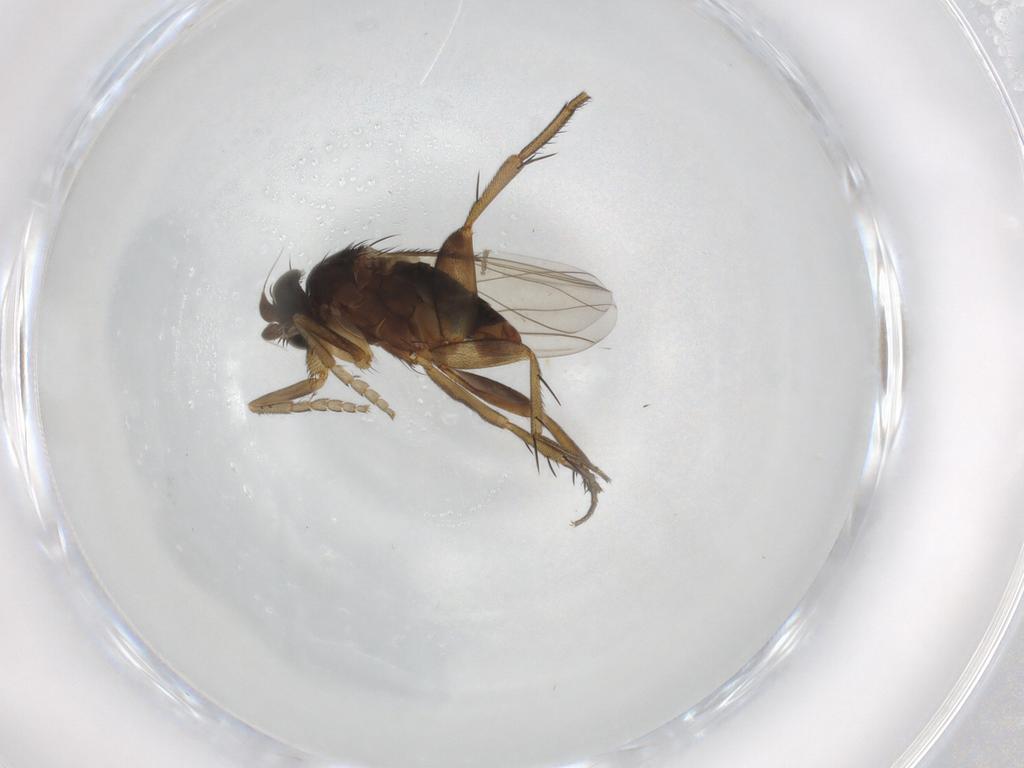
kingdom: Animalia
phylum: Arthropoda
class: Insecta
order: Diptera
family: Phoridae
